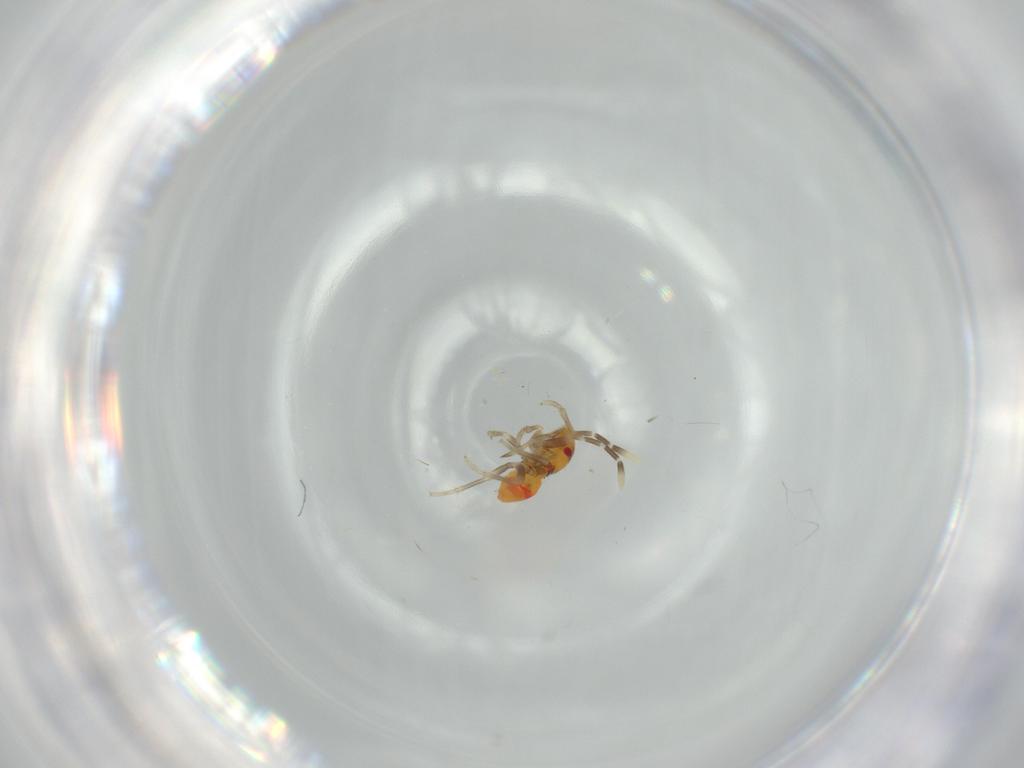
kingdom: Animalia
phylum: Arthropoda
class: Insecta
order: Hemiptera
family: Rhyparochromidae
